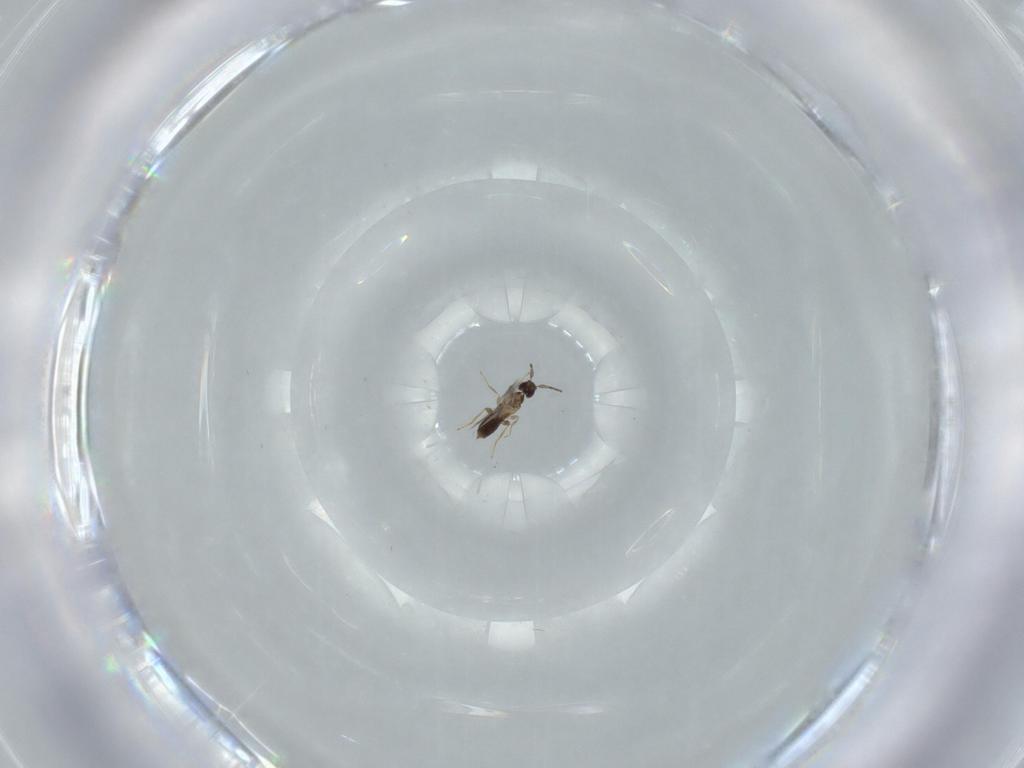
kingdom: Animalia
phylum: Arthropoda
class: Insecta
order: Hymenoptera
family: Mymaridae
